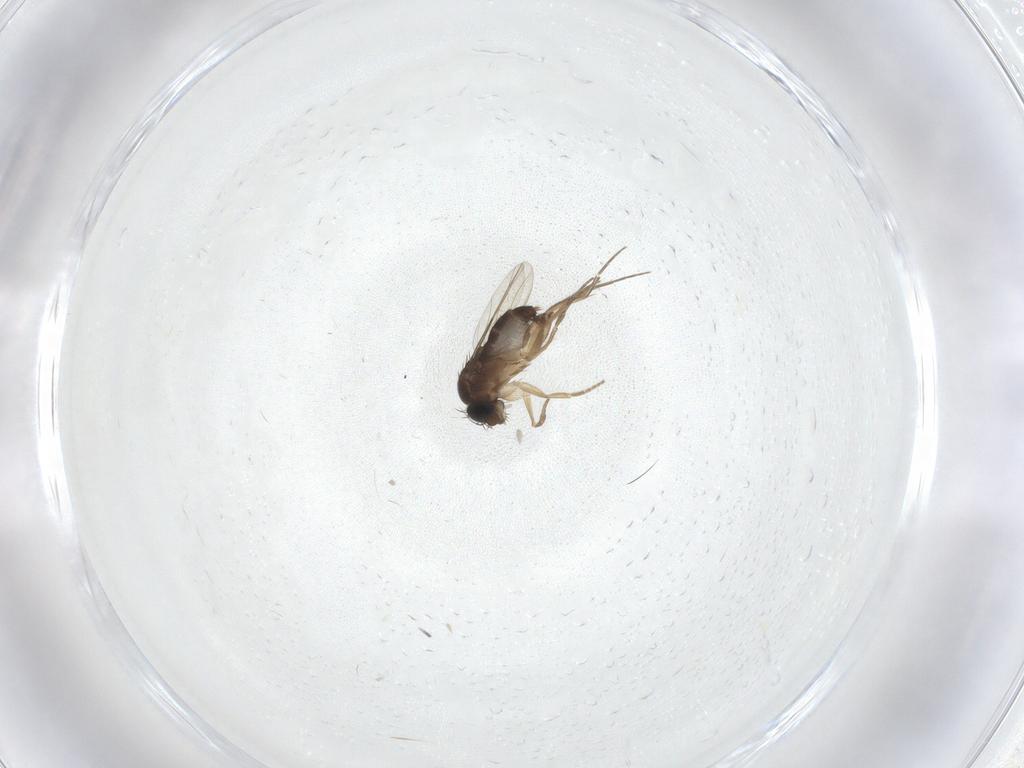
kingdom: Animalia
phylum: Arthropoda
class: Insecta
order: Diptera
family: Phoridae
